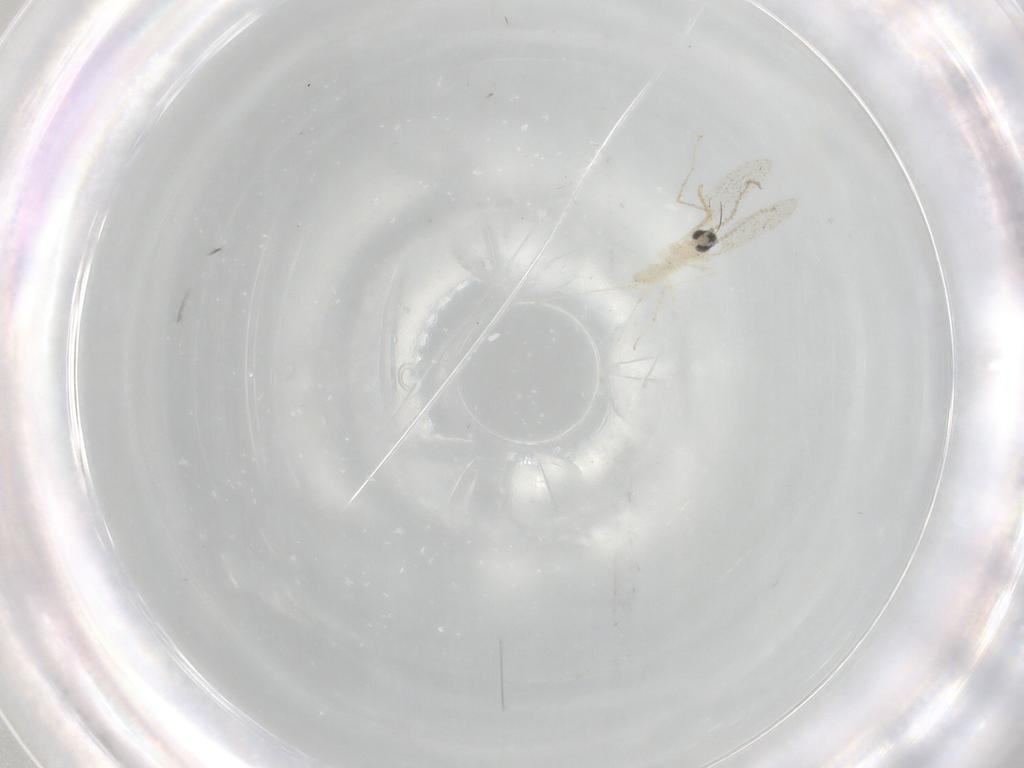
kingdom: Animalia
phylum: Arthropoda
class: Insecta
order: Diptera
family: Cecidomyiidae
